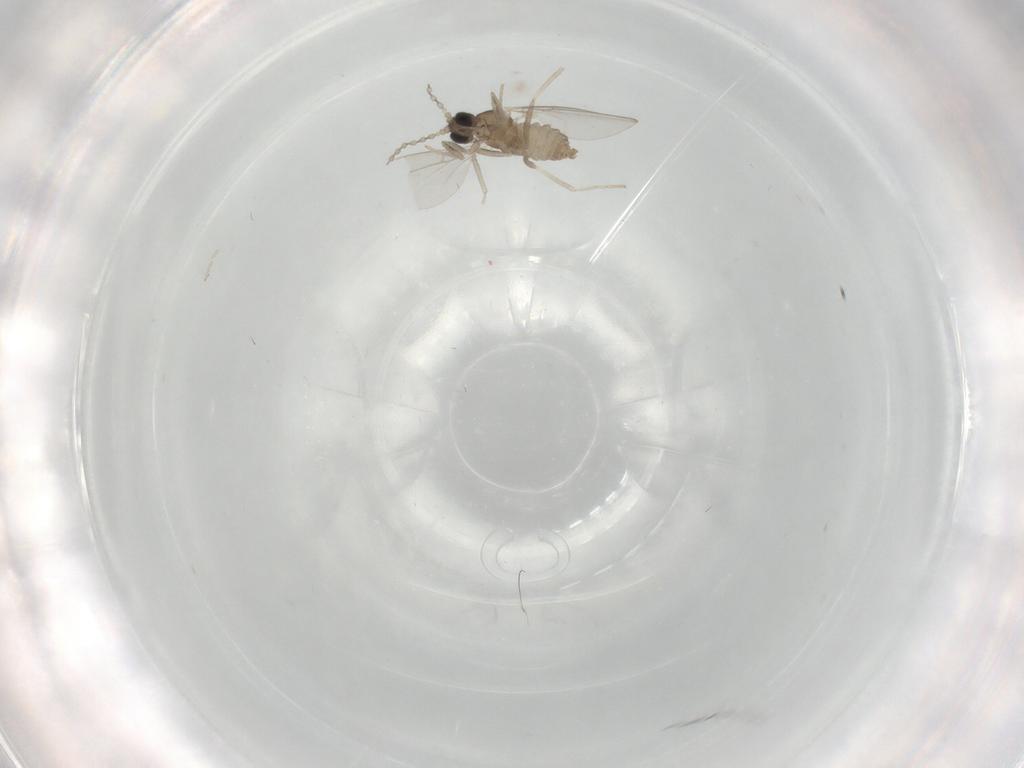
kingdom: Animalia
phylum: Arthropoda
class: Insecta
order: Diptera
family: Cecidomyiidae
